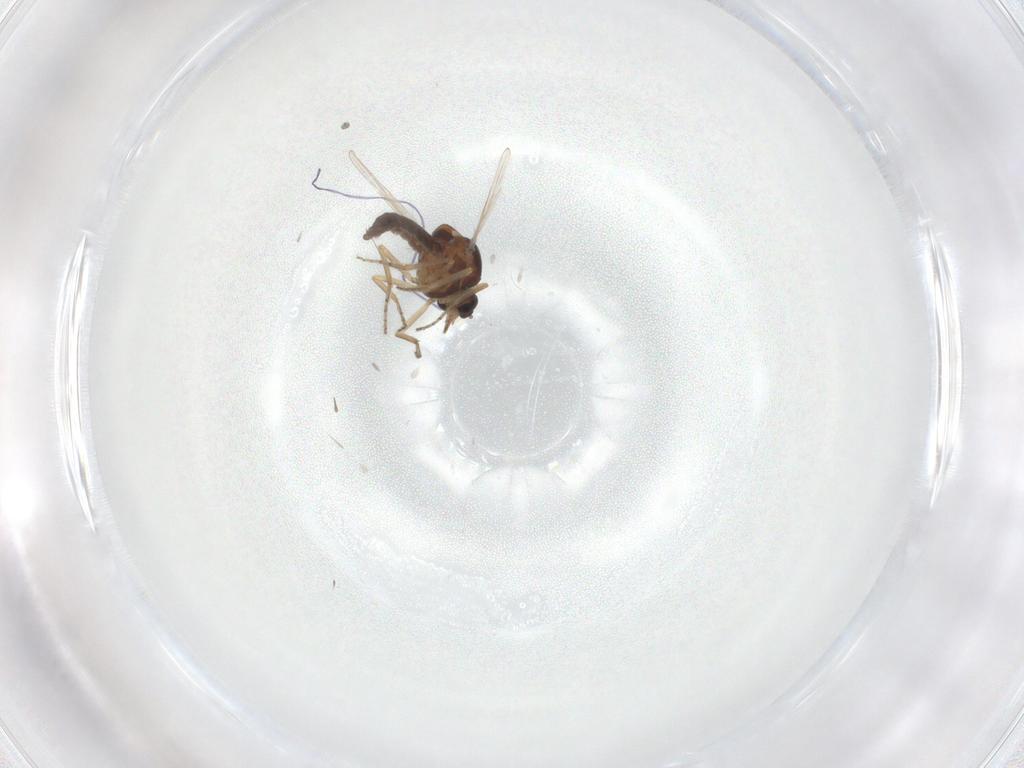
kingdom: Animalia
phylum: Arthropoda
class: Insecta
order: Diptera
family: Ceratopogonidae
